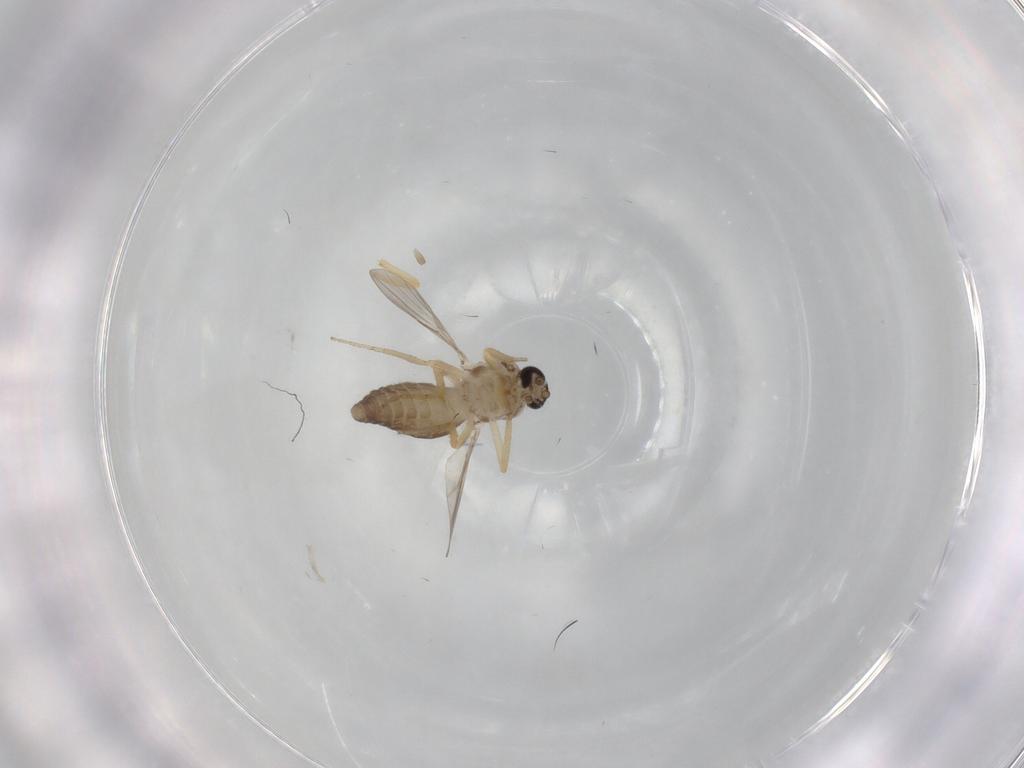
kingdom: Animalia
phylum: Arthropoda
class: Insecta
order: Diptera
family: Ceratopogonidae
